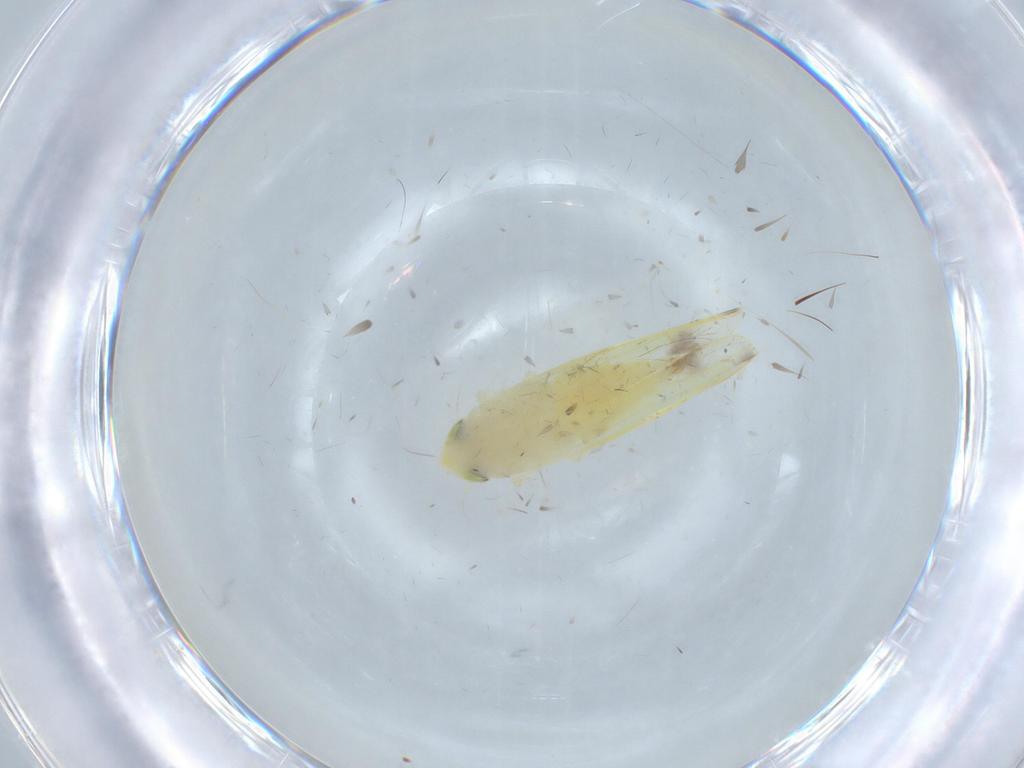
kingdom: Animalia
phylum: Arthropoda
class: Insecta
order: Hemiptera
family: Cicadellidae
